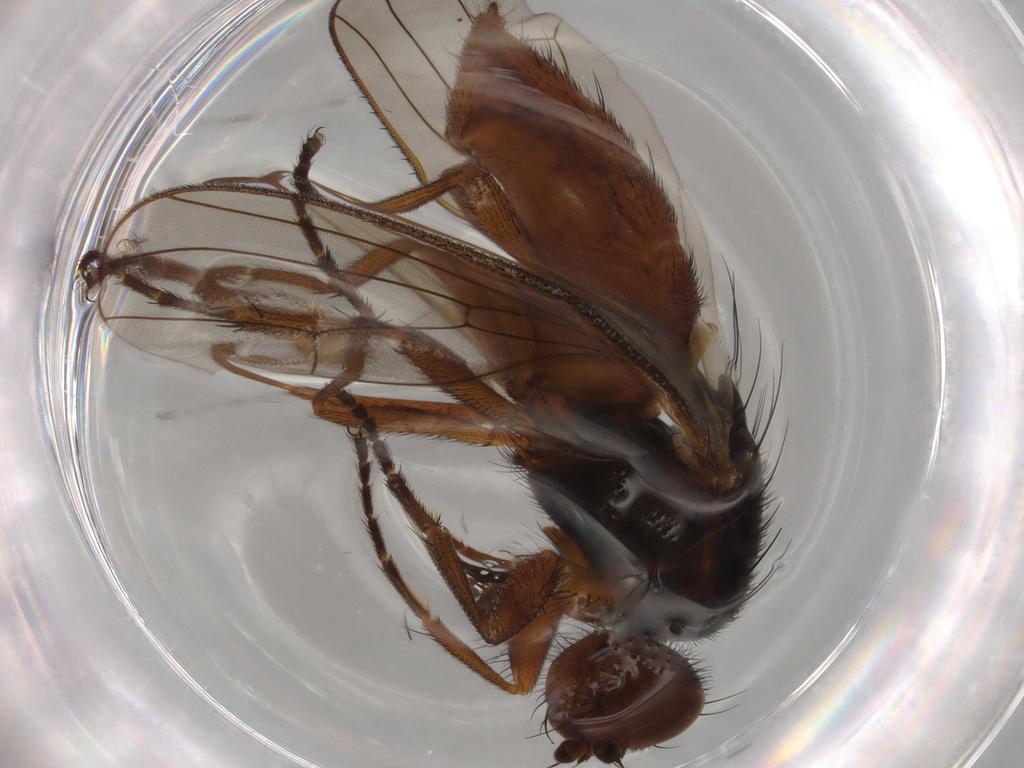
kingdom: Animalia
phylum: Arthropoda
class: Insecta
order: Diptera
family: Heleomyzidae
